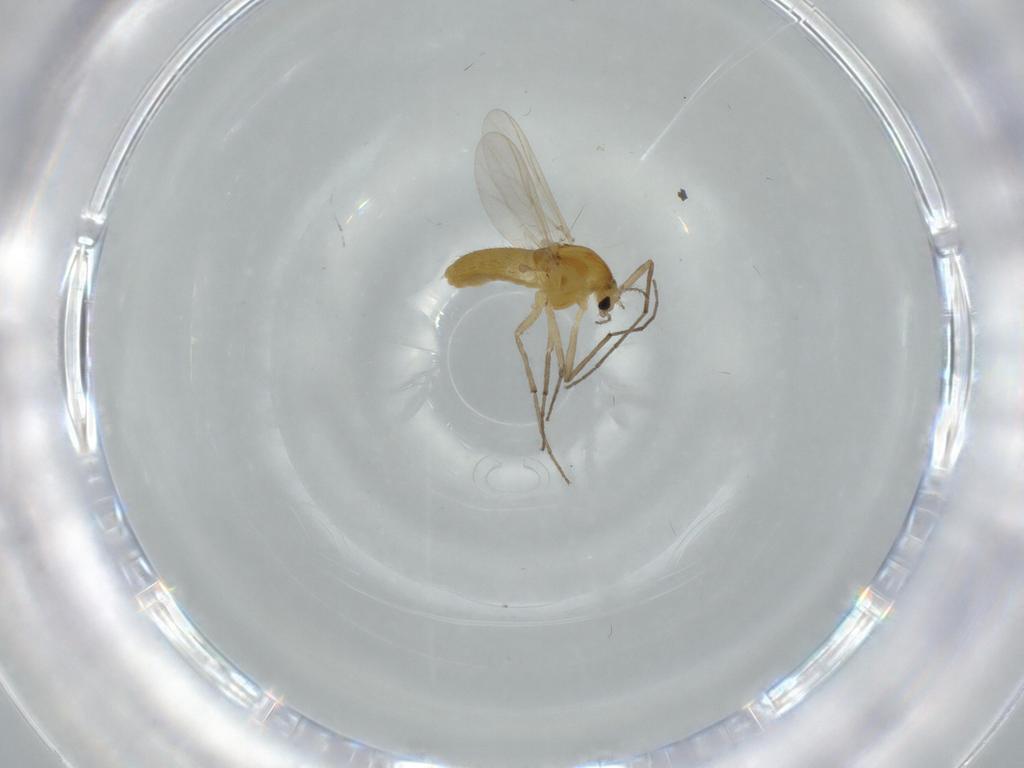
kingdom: Animalia
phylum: Arthropoda
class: Insecta
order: Diptera
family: Chironomidae
